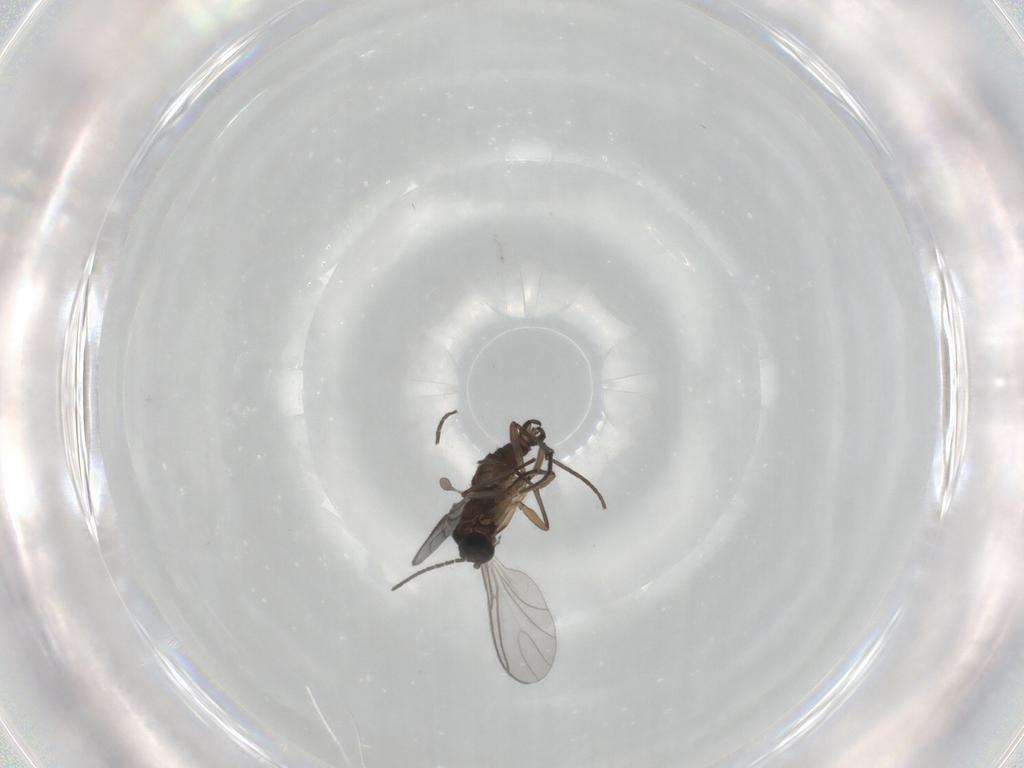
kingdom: Animalia
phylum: Arthropoda
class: Insecta
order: Diptera
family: Sciaridae
